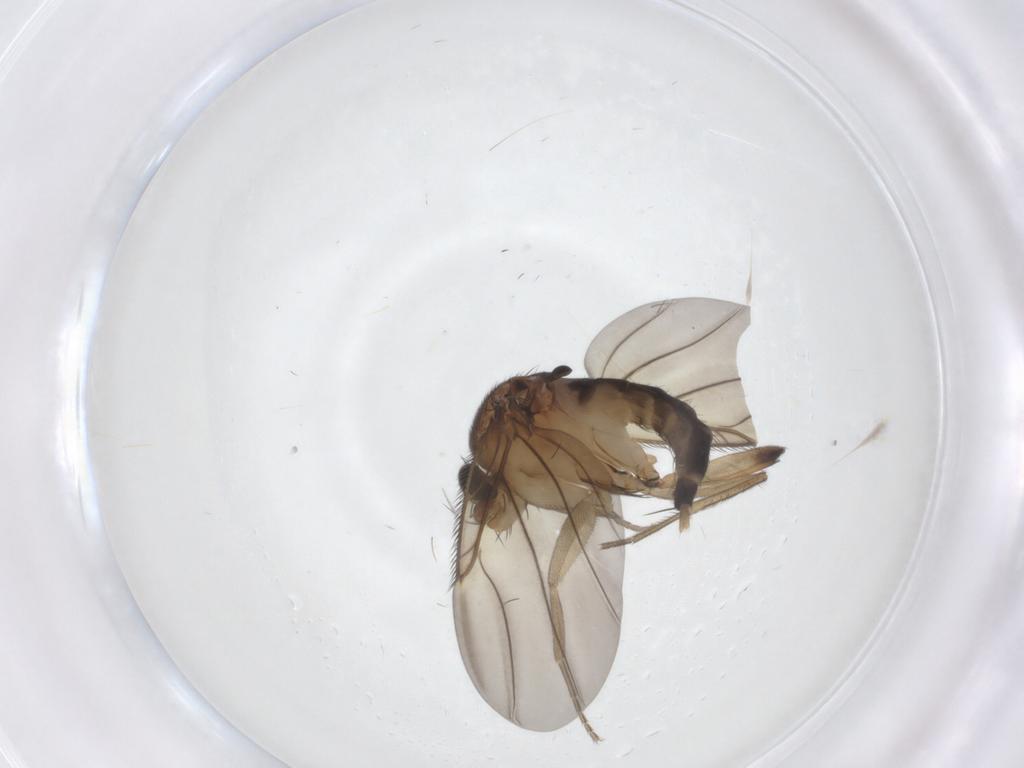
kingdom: Animalia
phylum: Arthropoda
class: Insecta
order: Diptera
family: Phoridae
